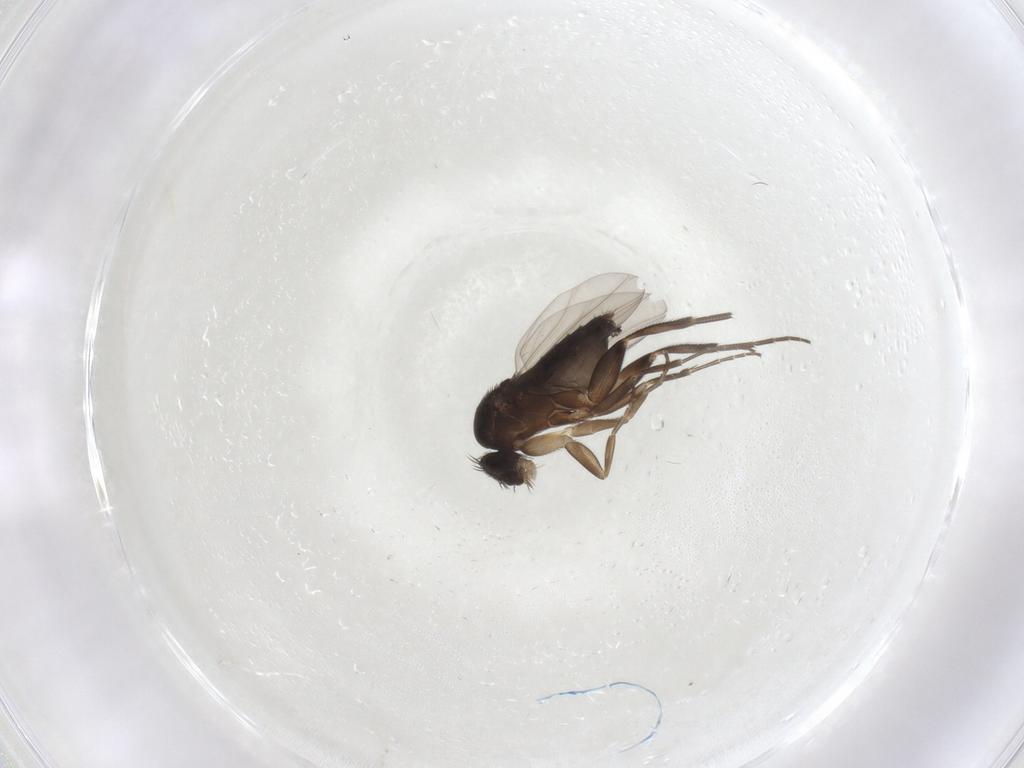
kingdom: Animalia
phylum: Arthropoda
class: Insecta
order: Diptera
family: Phoridae
